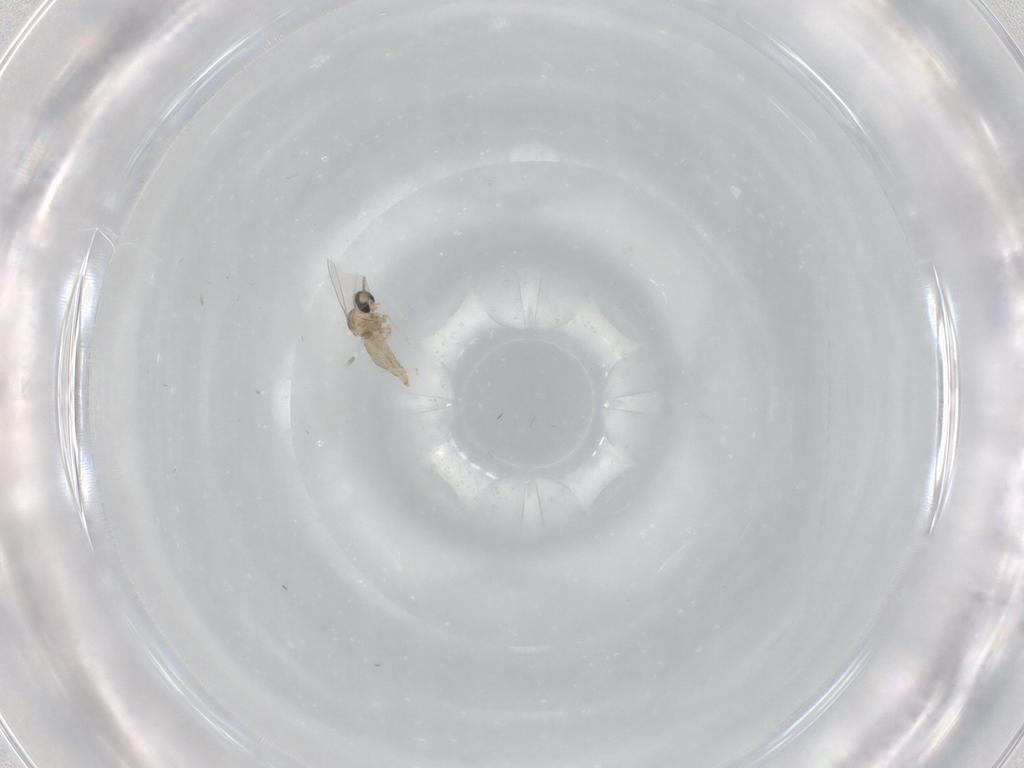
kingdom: Animalia
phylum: Arthropoda
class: Insecta
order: Diptera
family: Cecidomyiidae
